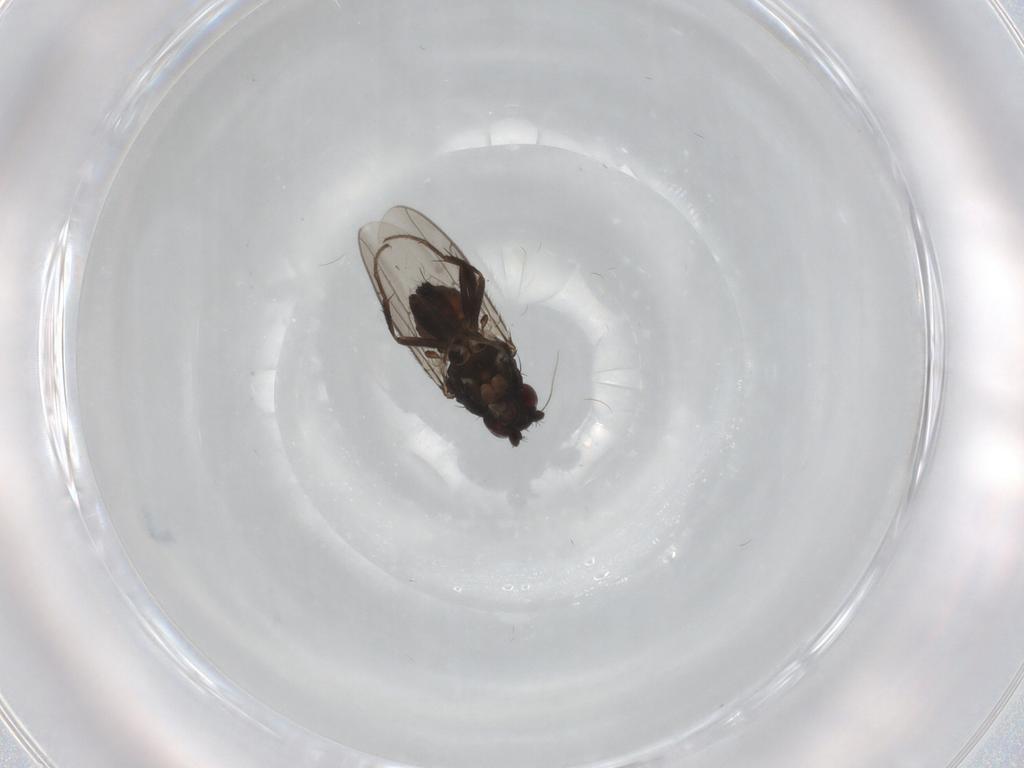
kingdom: Animalia
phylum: Arthropoda
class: Insecta
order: Diptera
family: Sphaeroceridae
